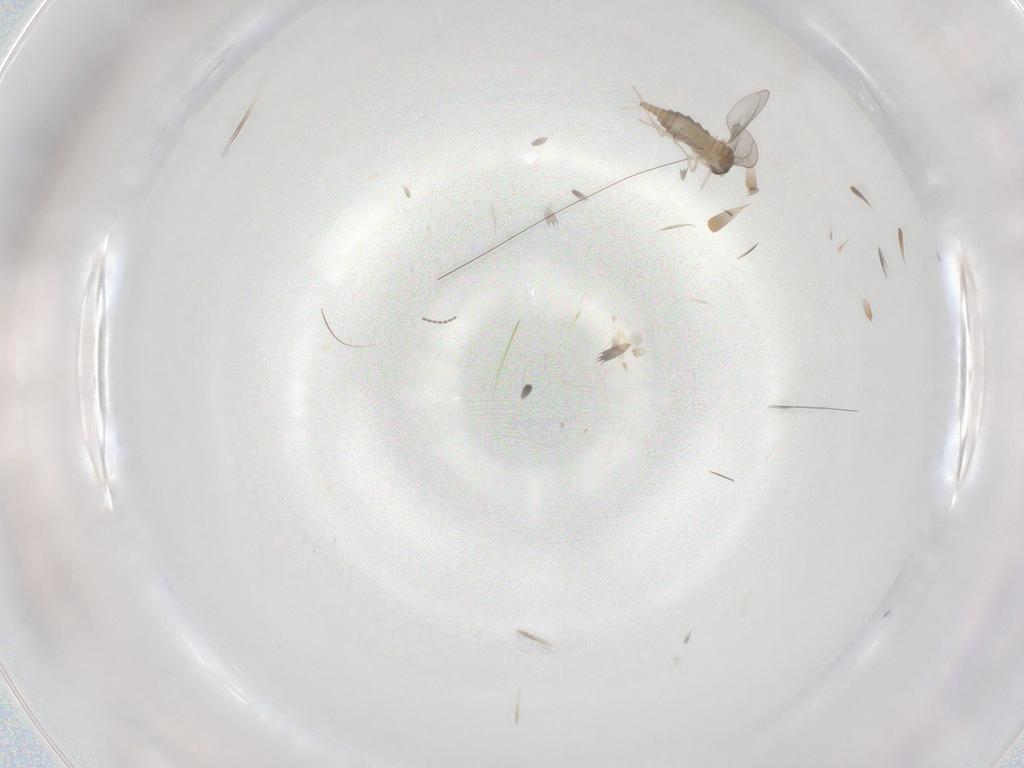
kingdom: Animalia
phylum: Arthropoda
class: Insecta
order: Diptera
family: Cecidomyiidae
